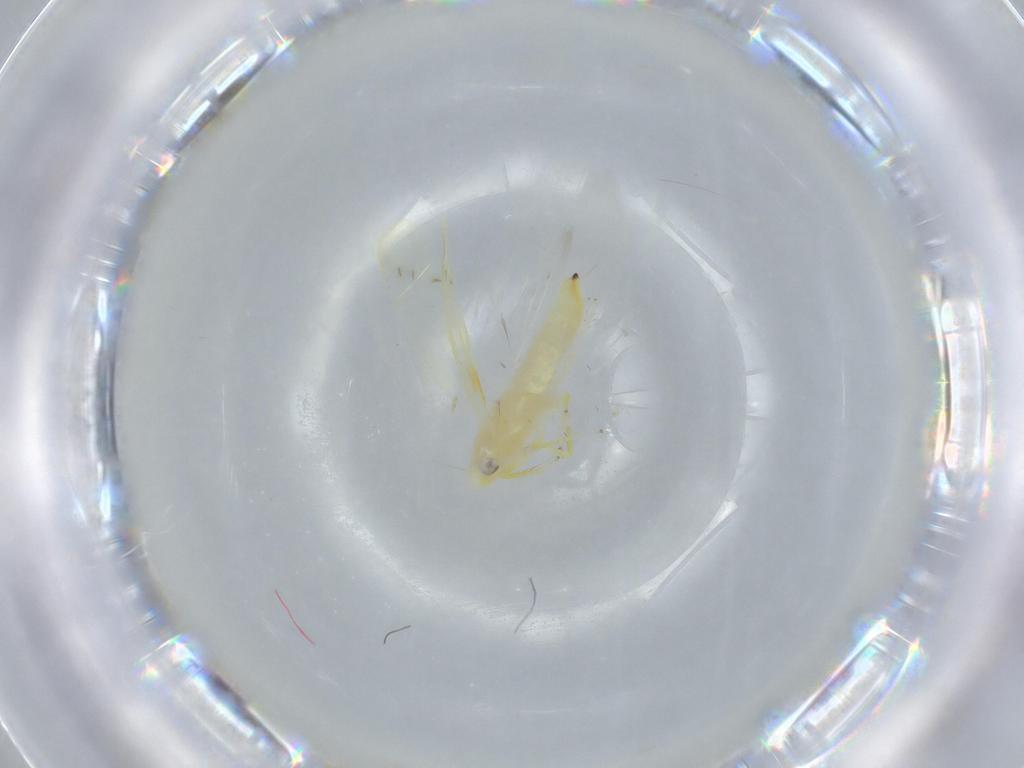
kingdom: Animalia
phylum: Arthropoda
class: Insecta
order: Hemiptera
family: Cicadellidae
